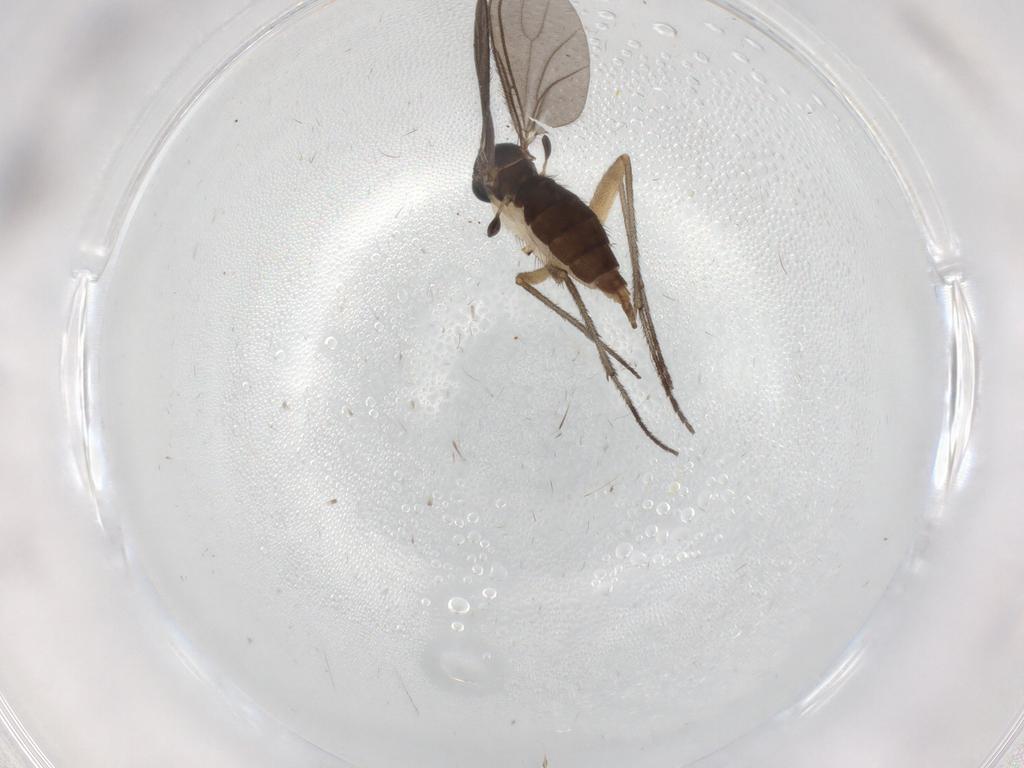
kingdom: Animalia
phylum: Arthropoda
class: Insecta
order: Diptera
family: Sciaridae
